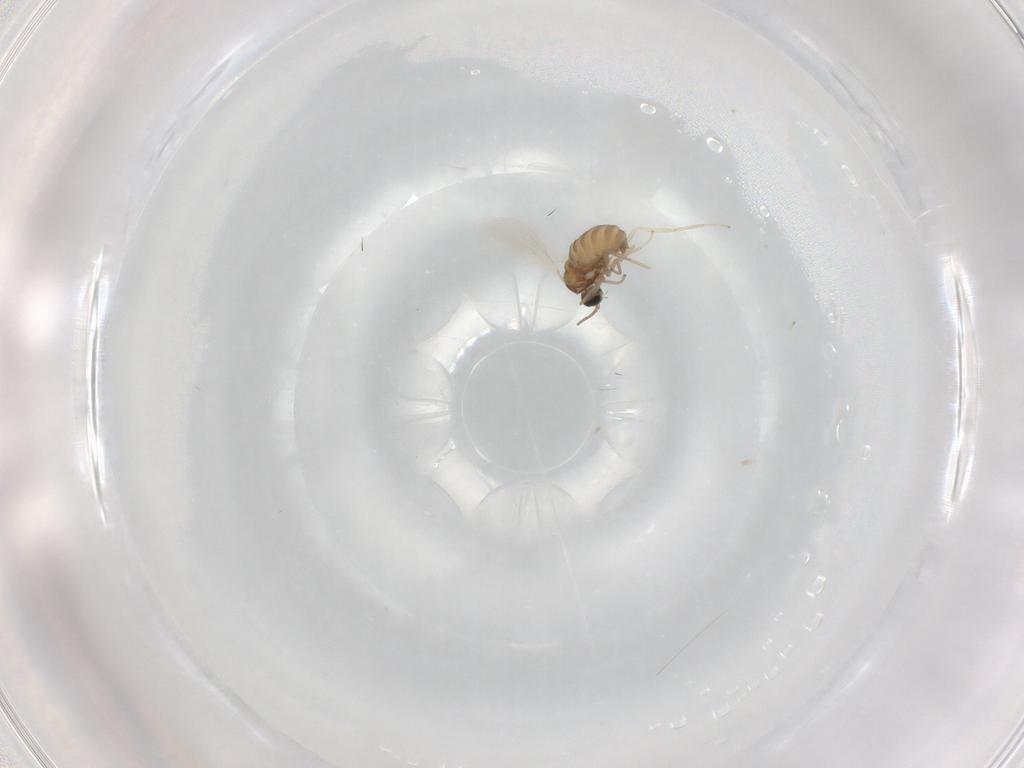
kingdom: Animalia
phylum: Arthropoda
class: Insecta
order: Diptera
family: Cecidomyiidae
